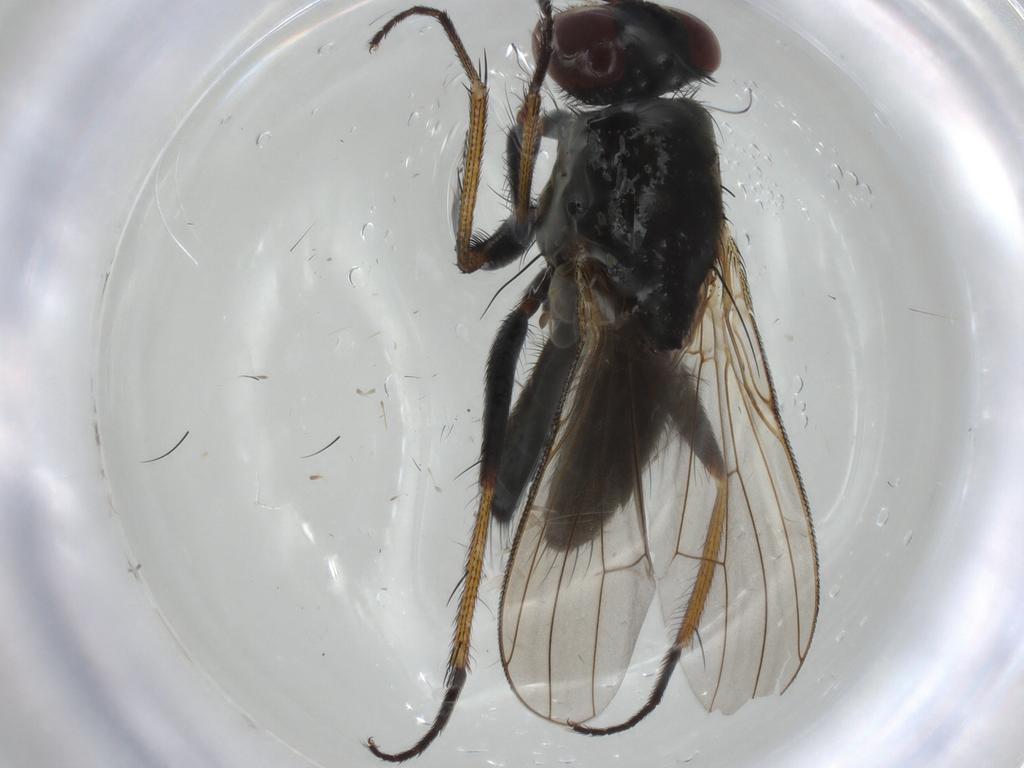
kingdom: Animalia
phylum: Arthropoda
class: Insecta
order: Diptera
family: Muscidae
